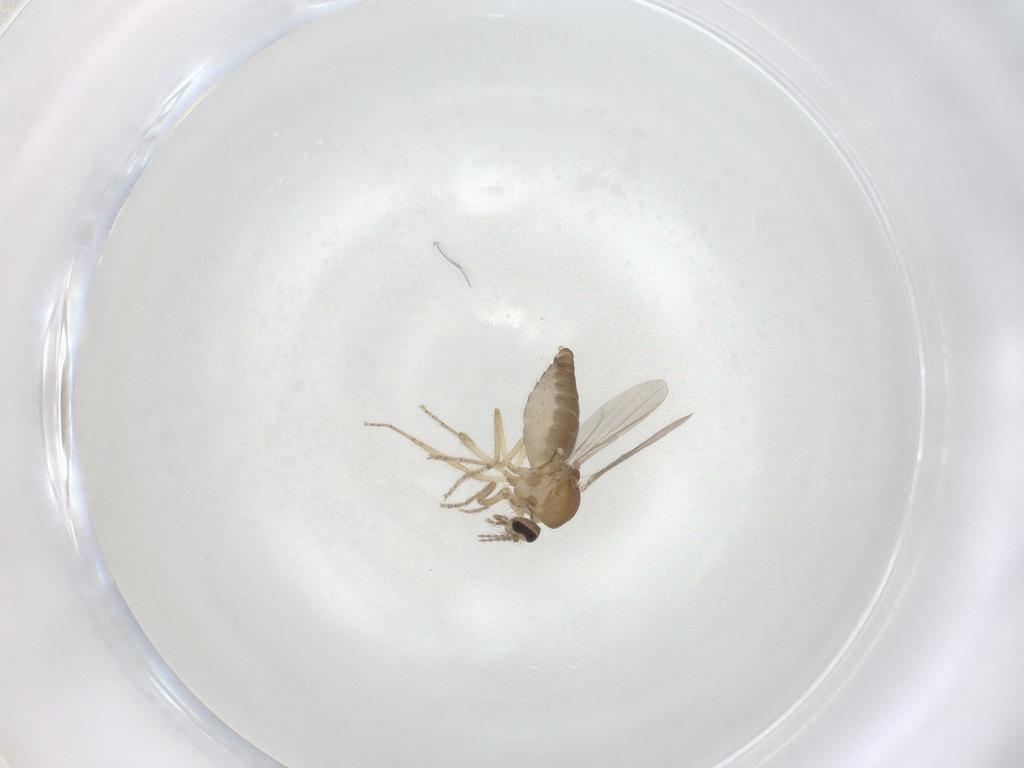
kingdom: Animalia
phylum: Arthropoda
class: Insecta
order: Diptera
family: Ceratopogonidae
